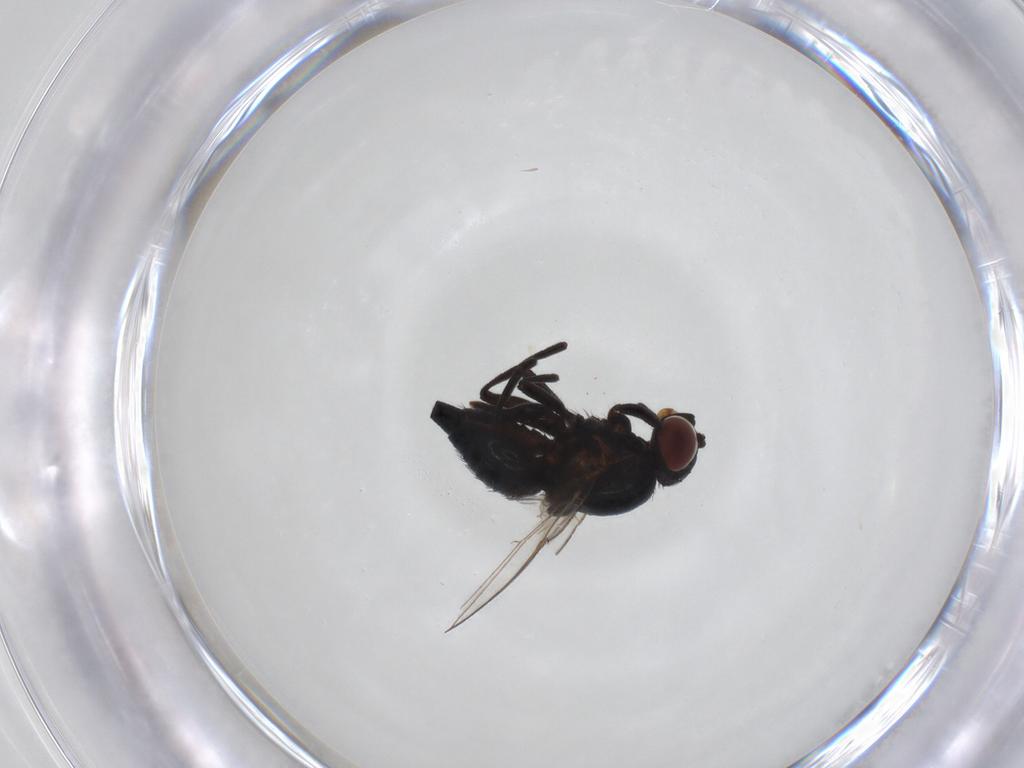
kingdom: Animalia
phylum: Arthropoda
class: Insecta
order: Diptera
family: Agromyzidae
